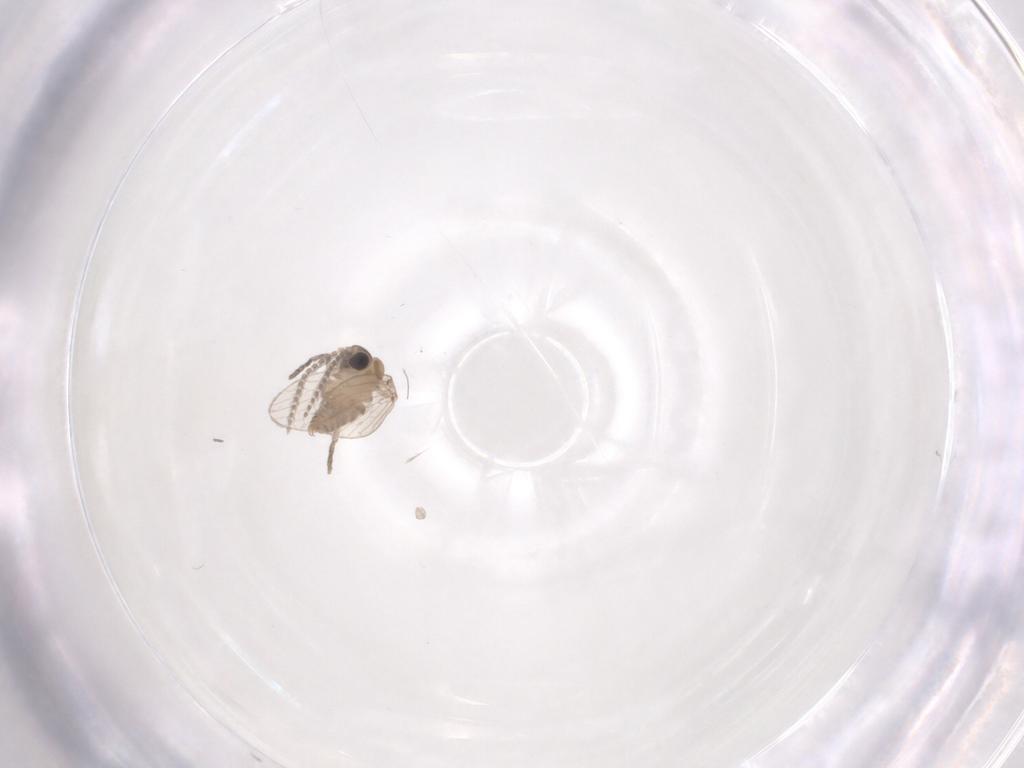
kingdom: Animalia
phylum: Arthropoda
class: Insecta
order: Diptera
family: Psychodidae
